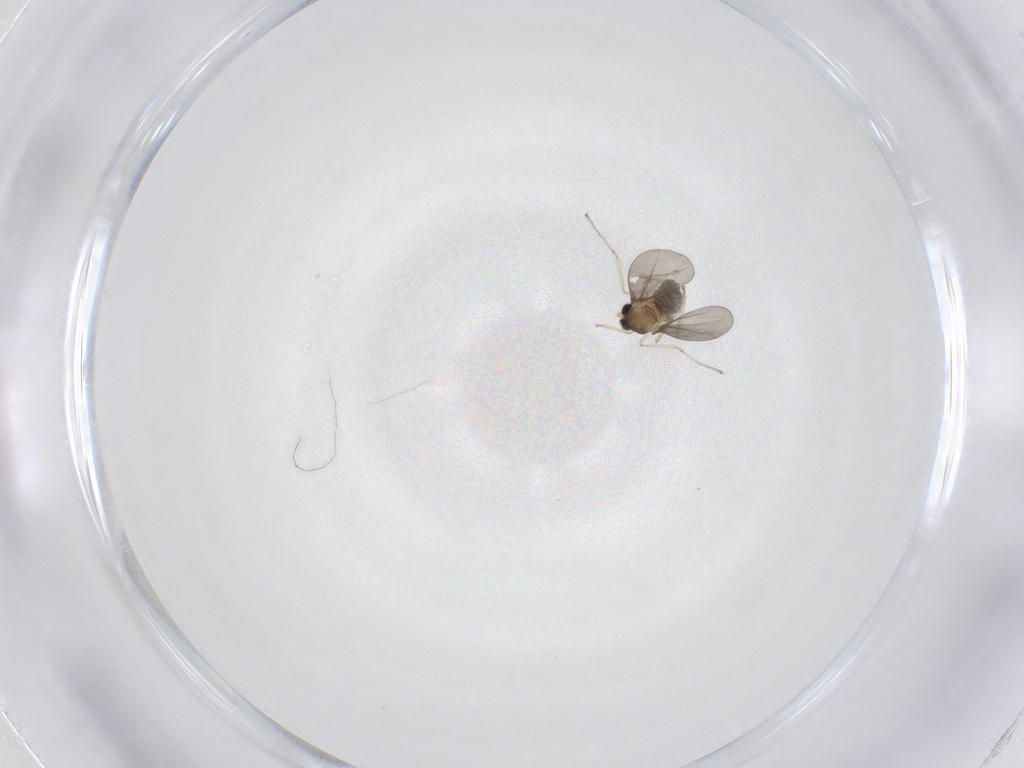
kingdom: Animalia
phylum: Arthropoda
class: Insecta
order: Diptera
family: Cecidomyiidae
